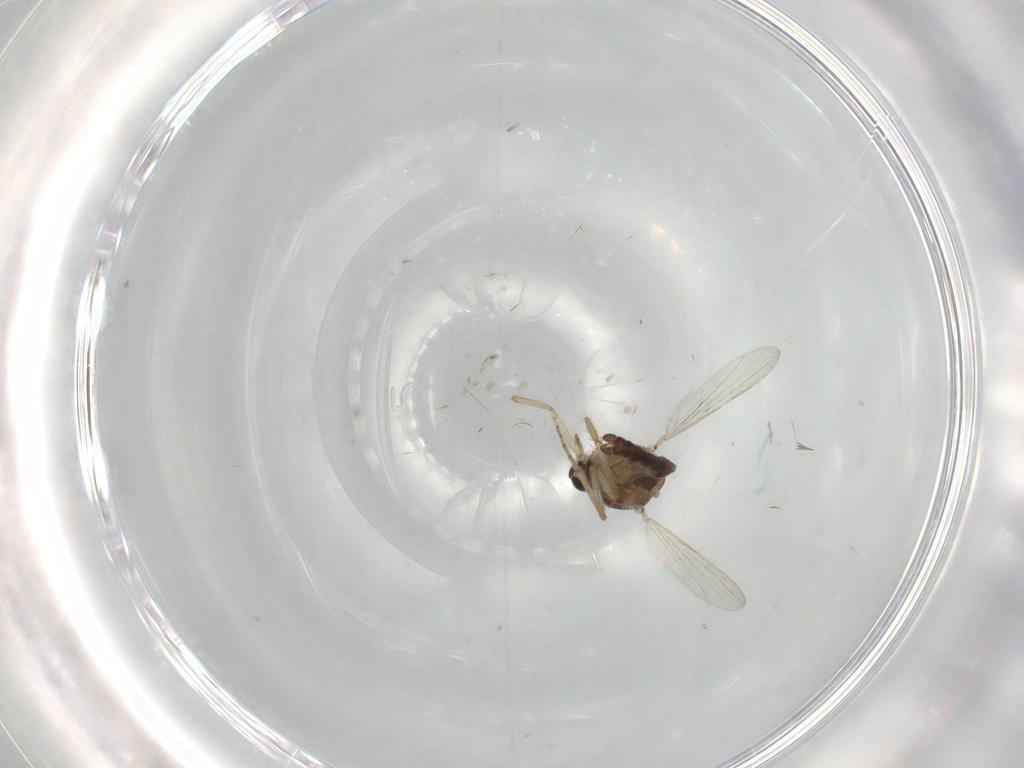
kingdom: Animalia
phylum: Arthropoda
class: Insecta
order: Diptera
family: Ceratopogonidae
